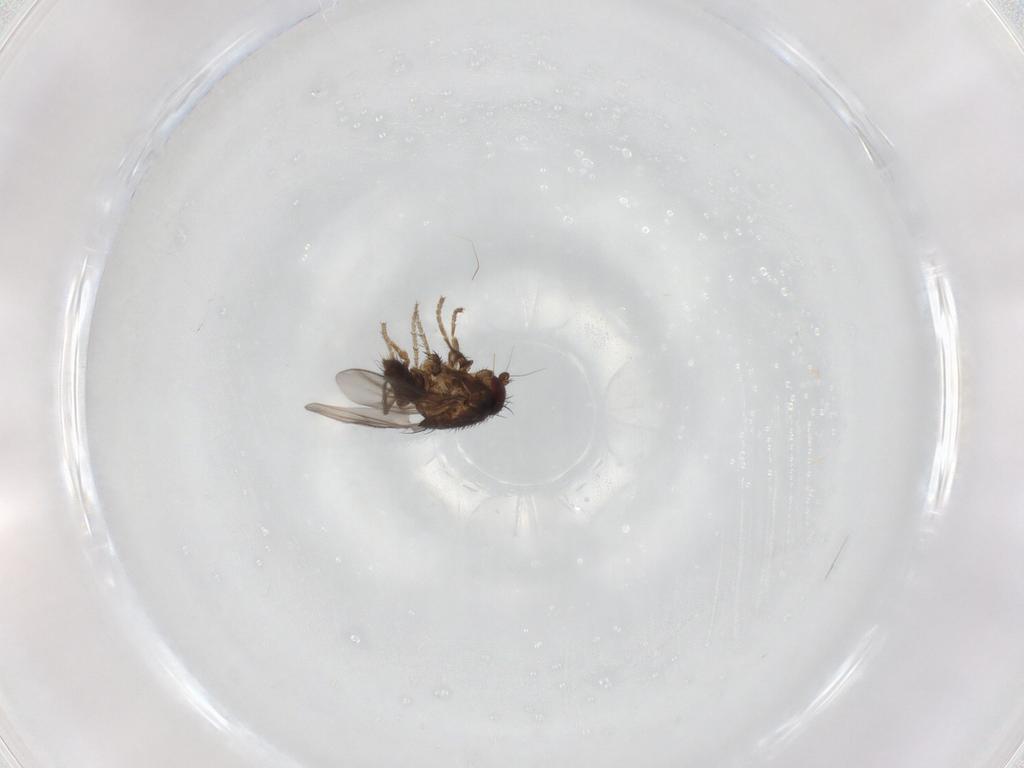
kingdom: Animalia
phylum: Arthropoda
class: Insecta
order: Diptera
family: Sphaeroceridae
